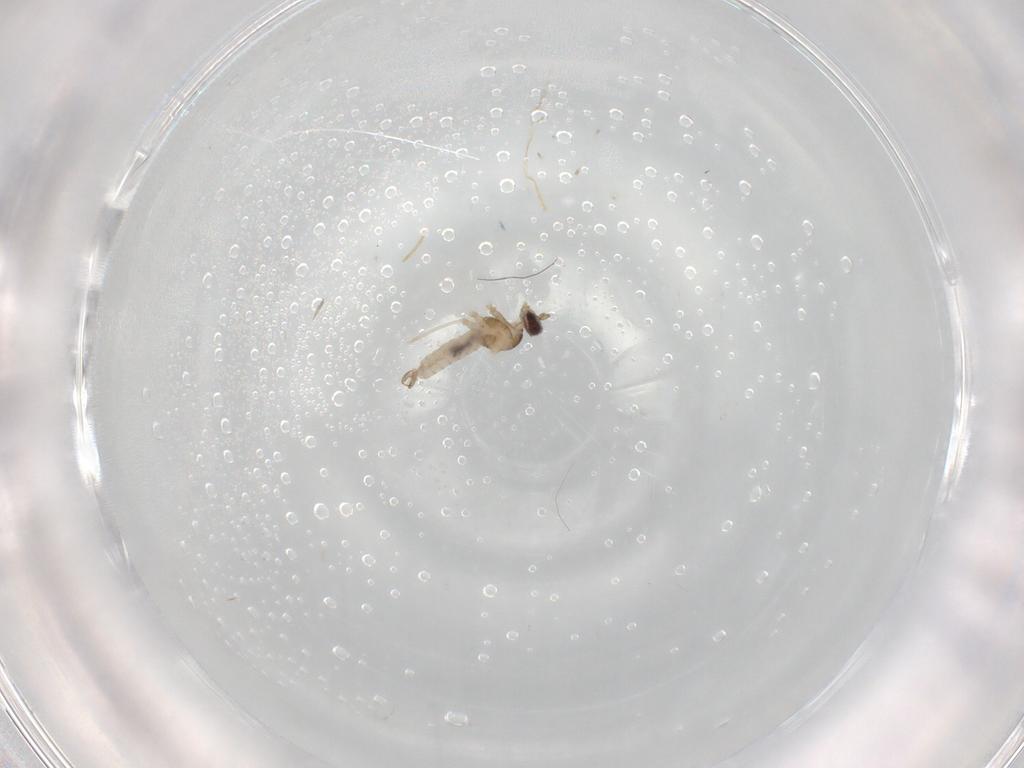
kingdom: Animalia
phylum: Arthropoda
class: Insecta
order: Diptera
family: Cecidomyiidae
